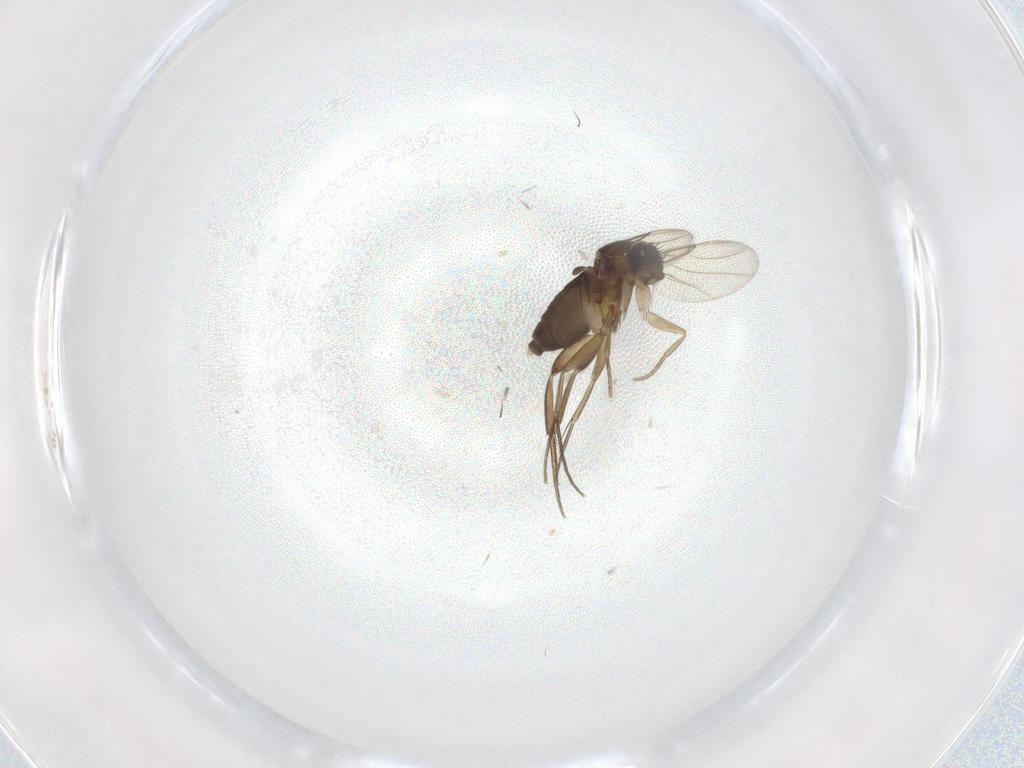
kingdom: Animalia
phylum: Arthropoda
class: Insecta
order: Diptera
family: Phoridae
